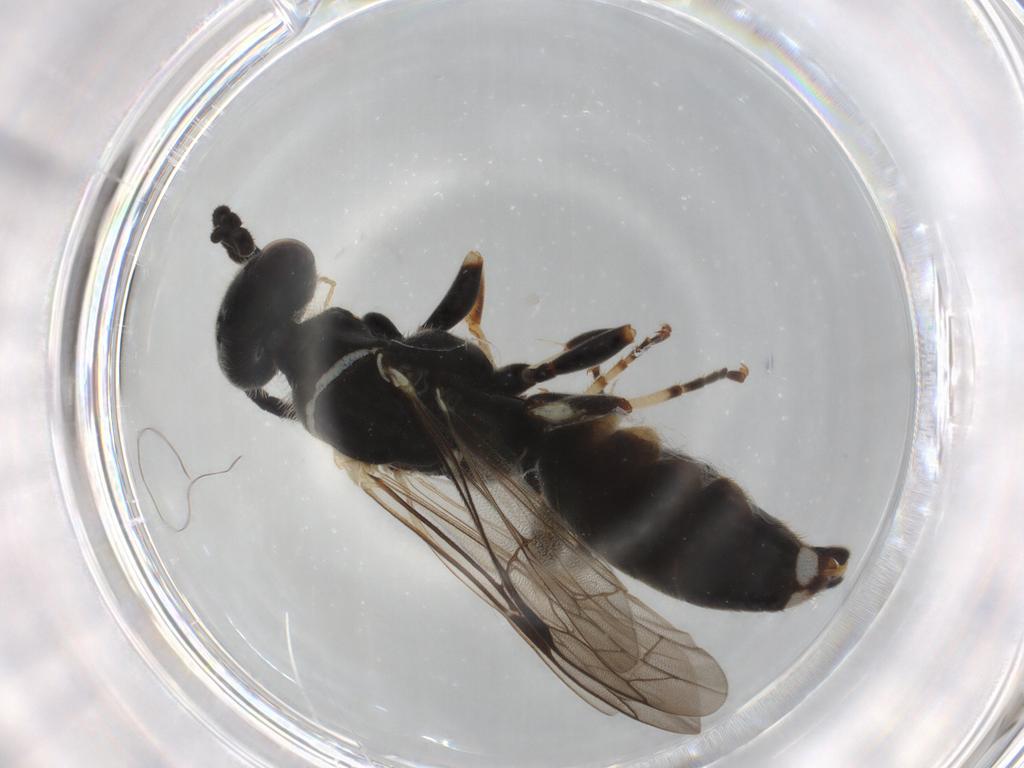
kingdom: Animalia
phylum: Arthropoda
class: Insecta
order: Hymenoptera
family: Thynnidae
